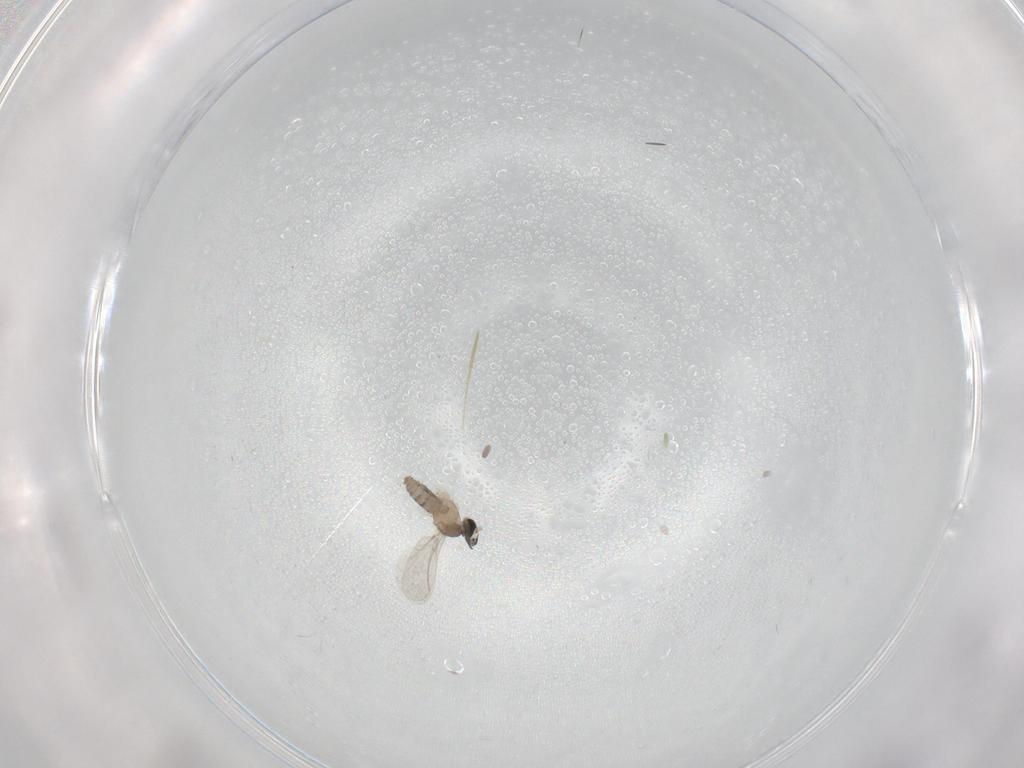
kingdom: Animalia
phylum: Arthropoda
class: Insecta
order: Diptera
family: Cecidomyiidae
